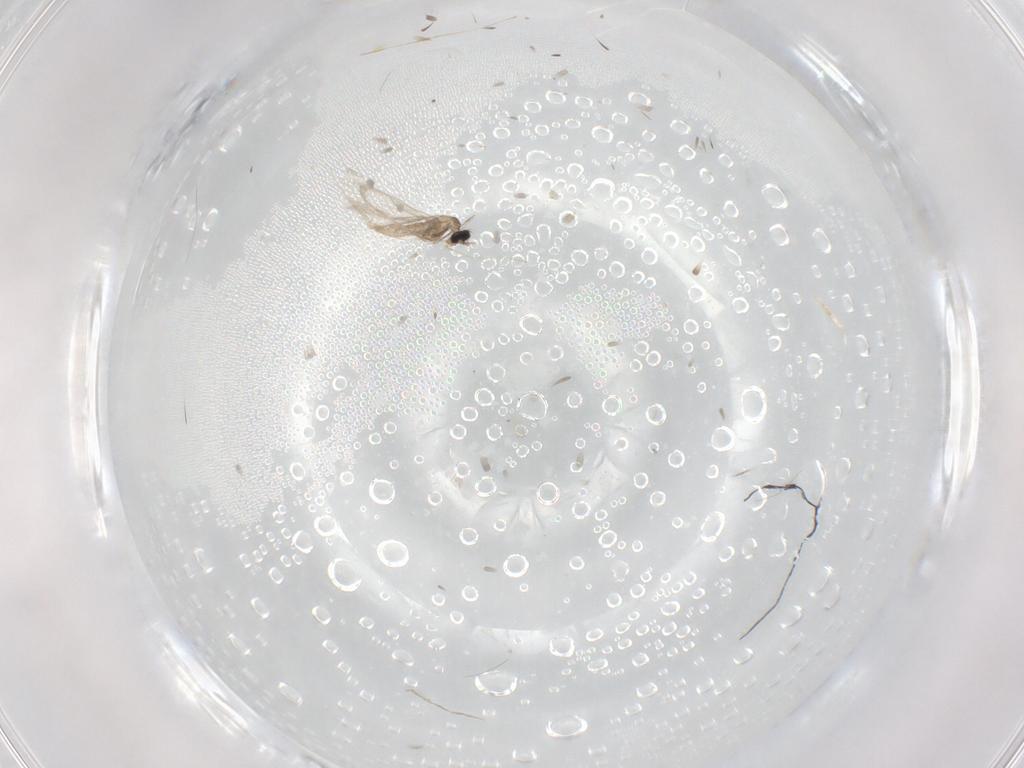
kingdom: Animalia
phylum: Arthropoda
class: Insecta
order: Diptera
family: Cecidomyiidae
